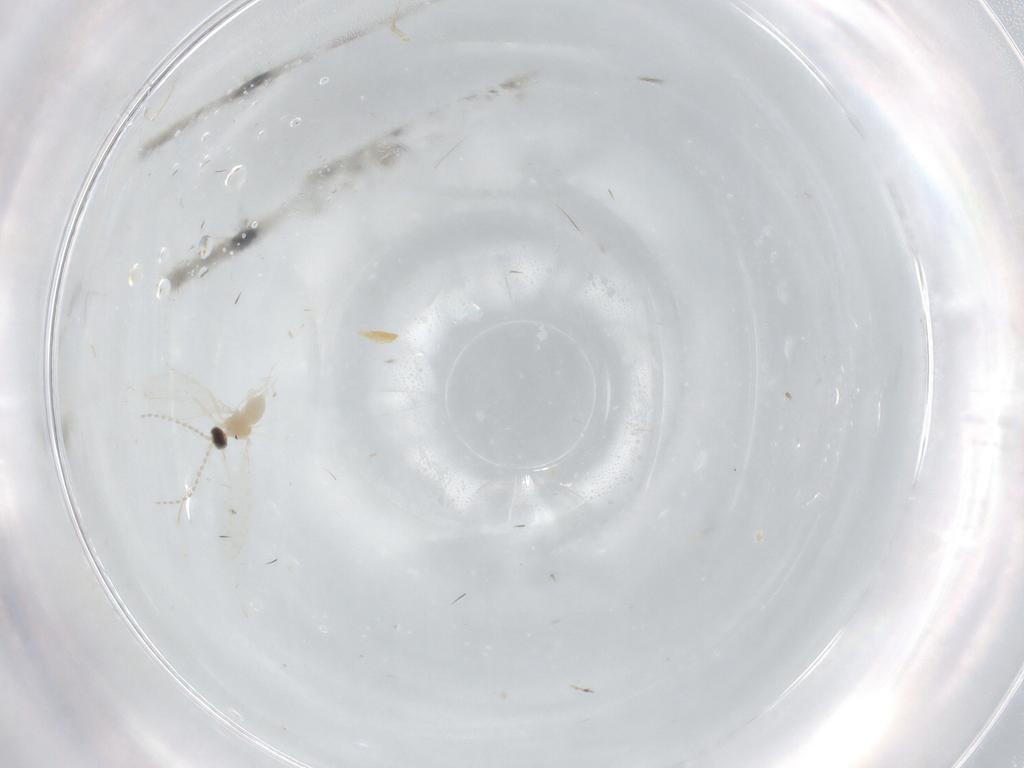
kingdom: Animalia
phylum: Arthropoda
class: Insecta
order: Diptera
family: Cecidomyiidae
